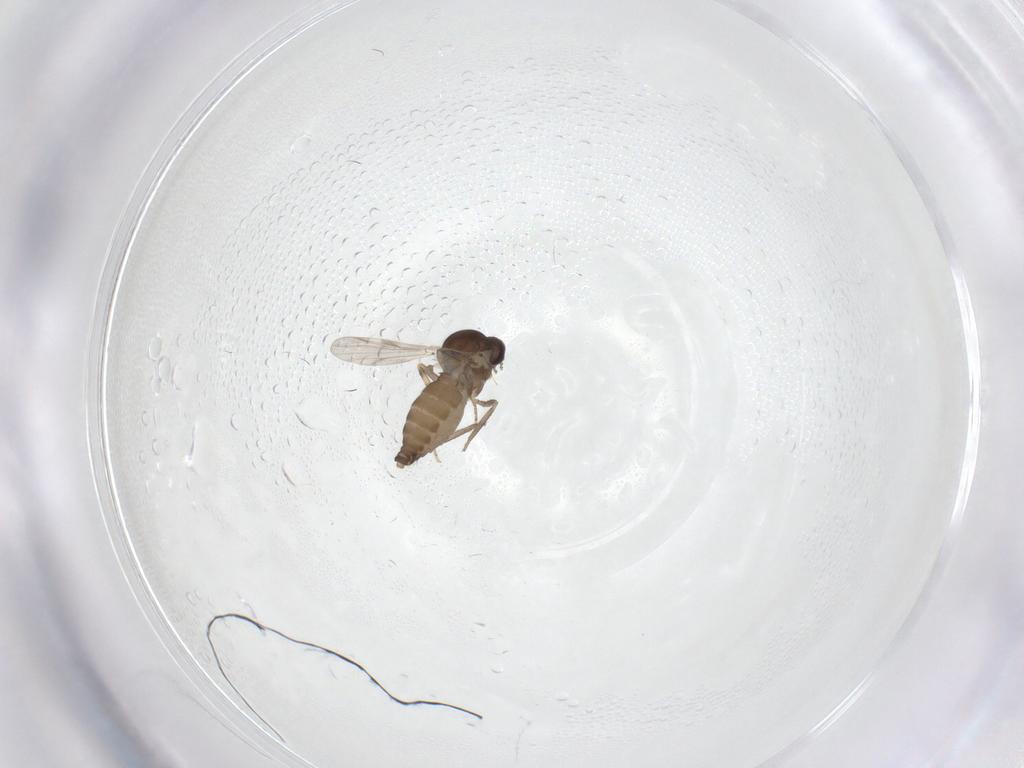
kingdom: Animalia
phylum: Arthropoda
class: Insecta
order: Diptera
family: Ceratopogonidae
